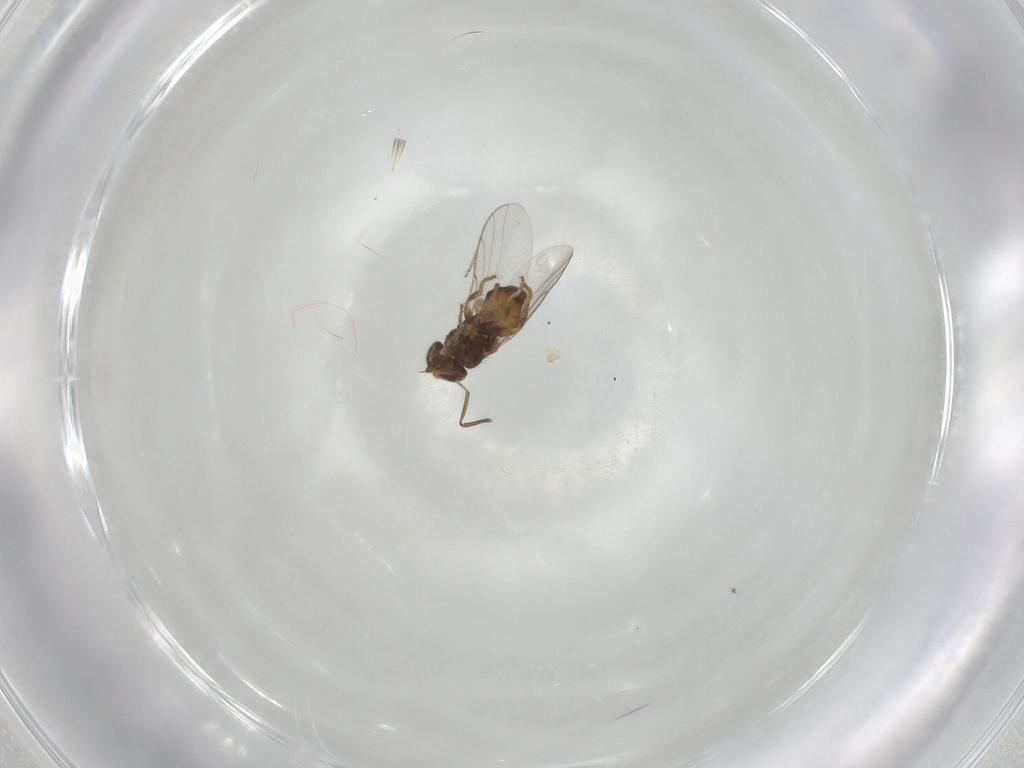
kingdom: Animalia
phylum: Arthropoda
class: Insecta
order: Diptera
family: Chloropidae
